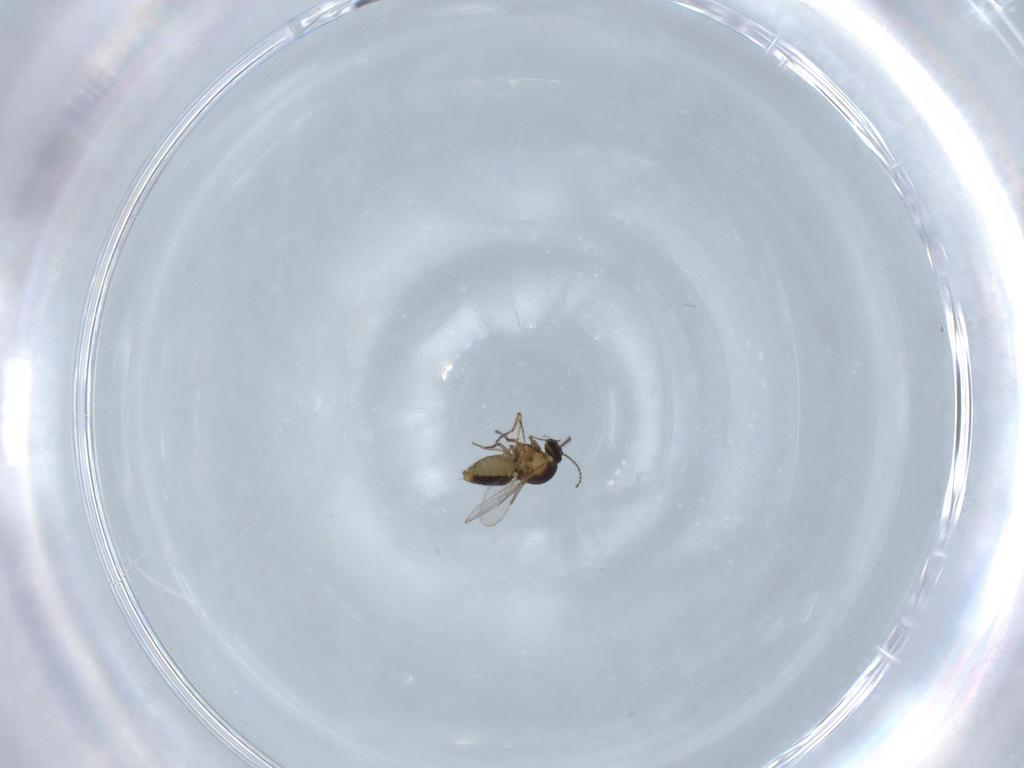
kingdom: Animalia
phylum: Arthropoda
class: Insecta
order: Diptera
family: Ceratopogonidae
